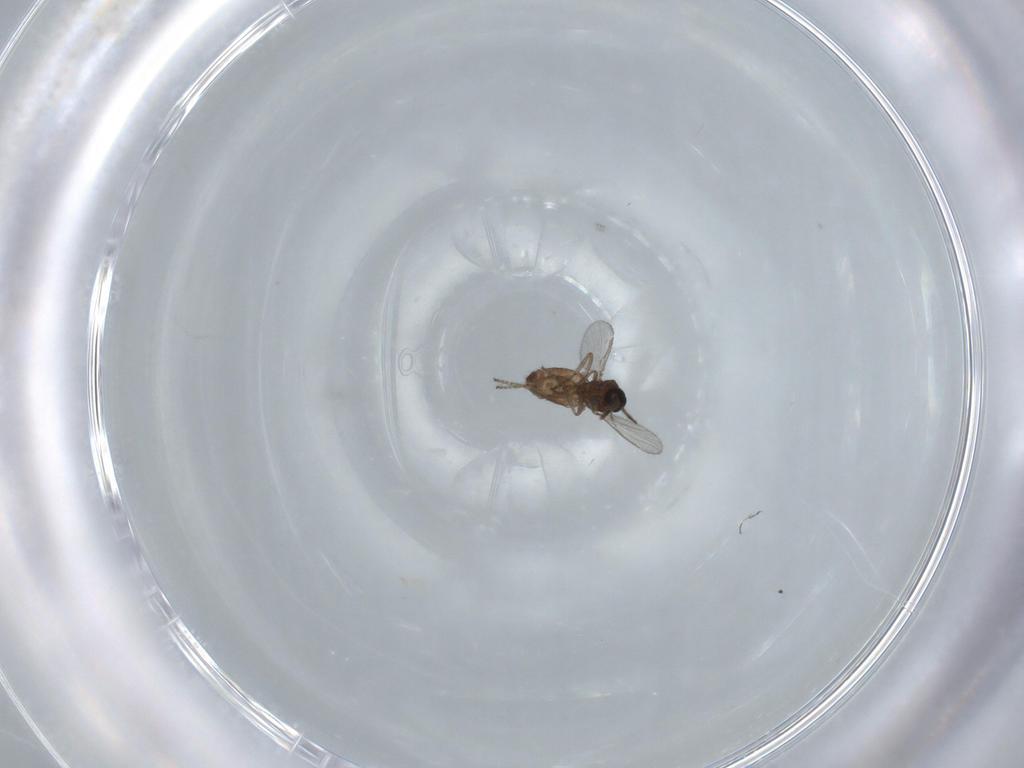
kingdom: Animalia
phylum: Arthropoda
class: Insecta
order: Diptera
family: Ceratopogonidae
